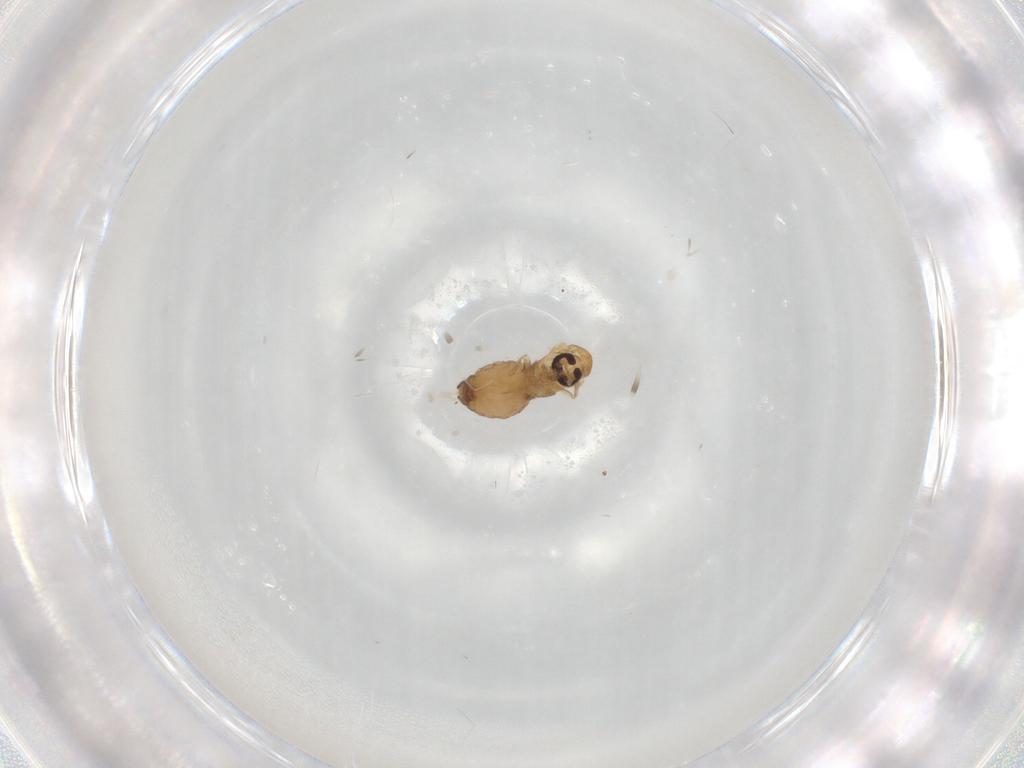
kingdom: Animalia
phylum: Arthropoda
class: Insecta
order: Diptera
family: Psychodidae
